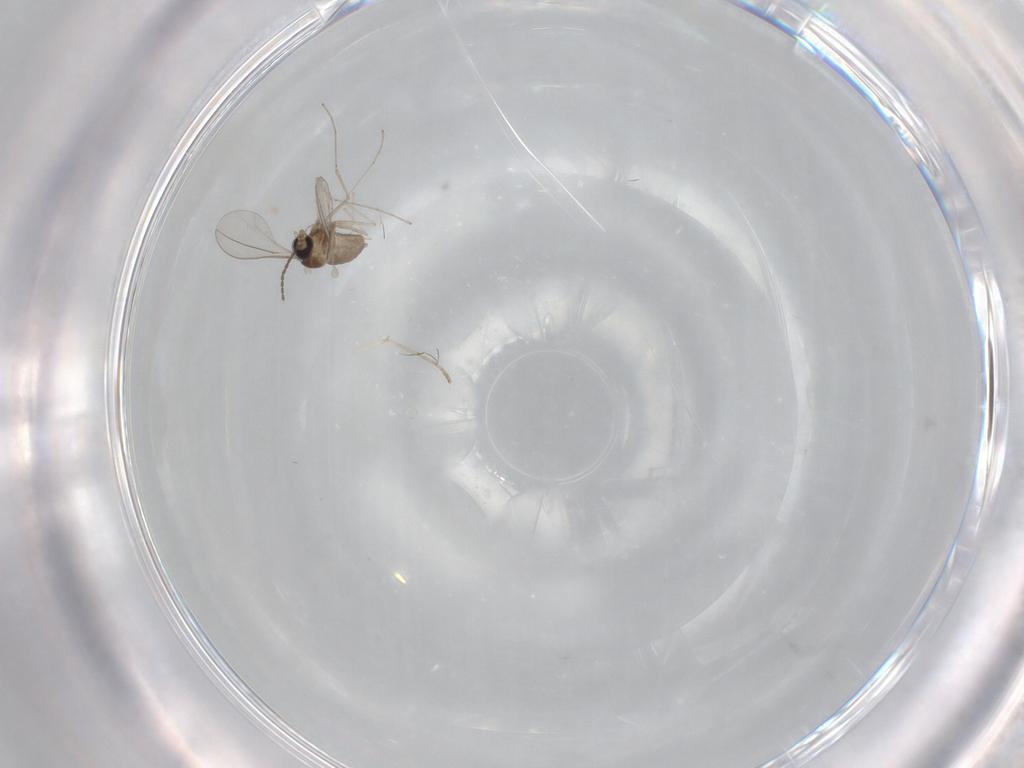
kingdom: Animalia
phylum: Arthropoda
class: Insecta
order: Diptera
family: Cecidomyiidae
